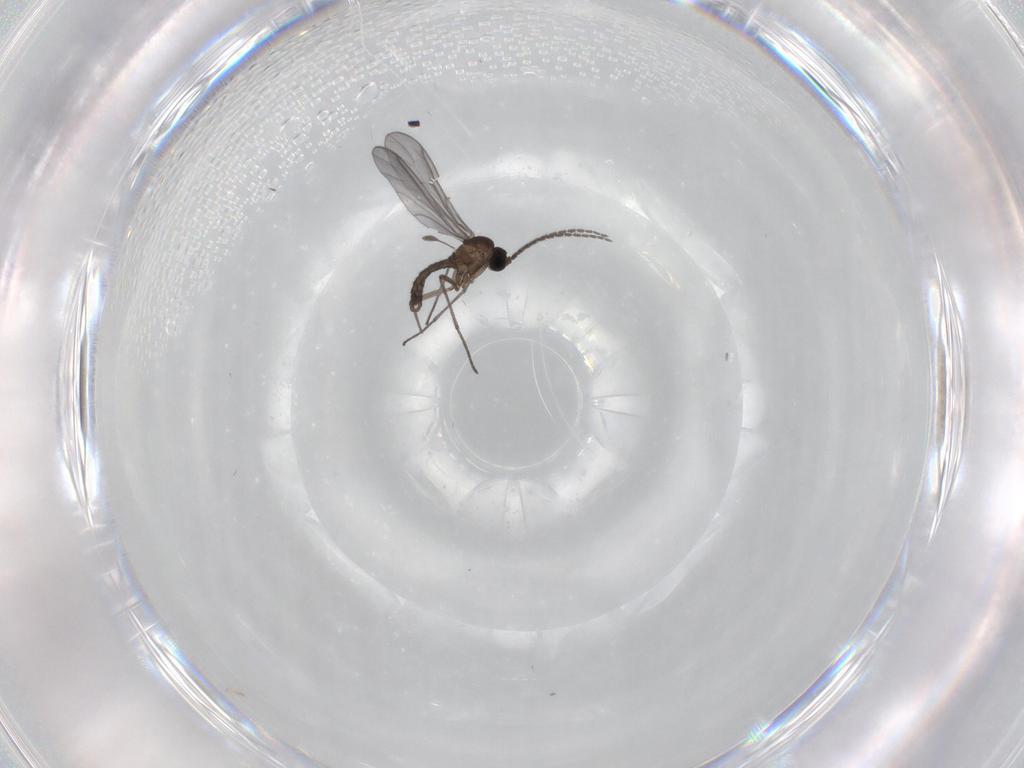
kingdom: Animalia
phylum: Arthropoda
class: Insecta
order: Diptera
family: Sciaridae
